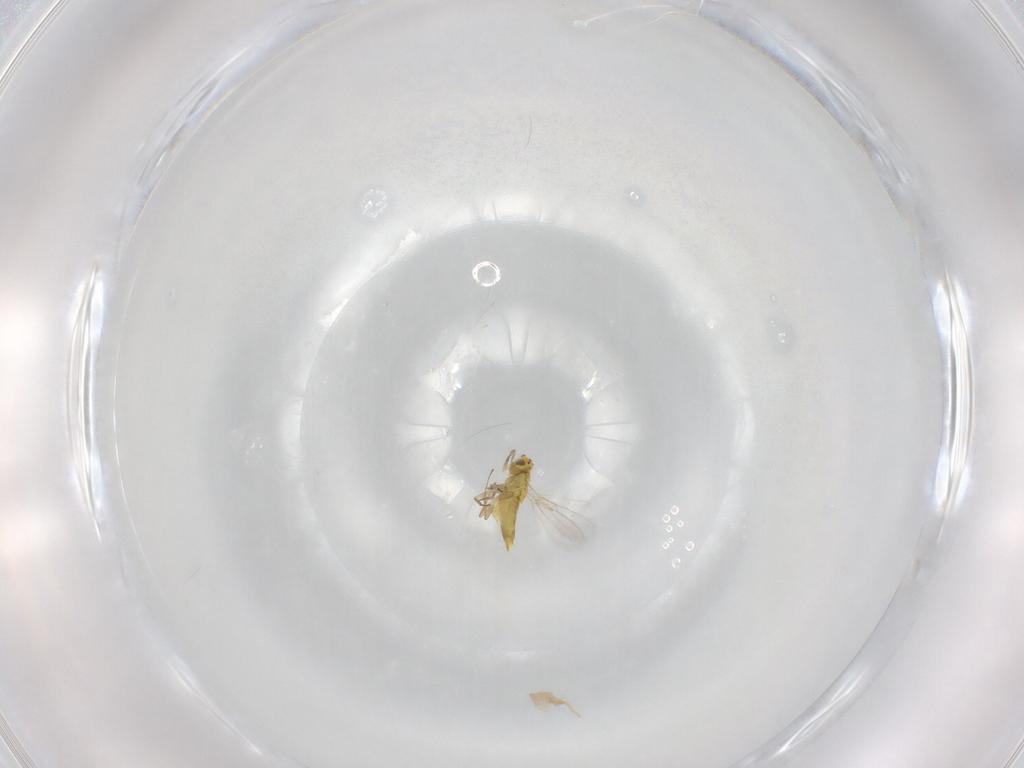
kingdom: Animalia
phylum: Arthropoda
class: Insecta
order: Hymenoptera
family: Aphelinidae
